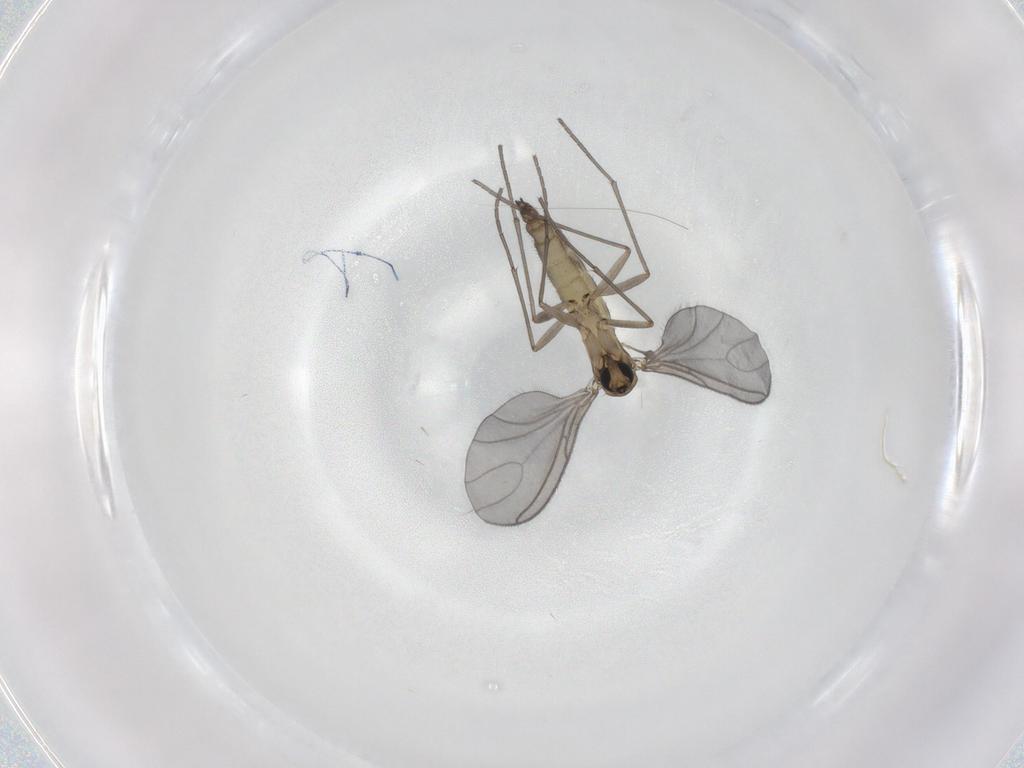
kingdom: Animalia
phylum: Arthropoda
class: Insecta
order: Diptera
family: Sciaridae
